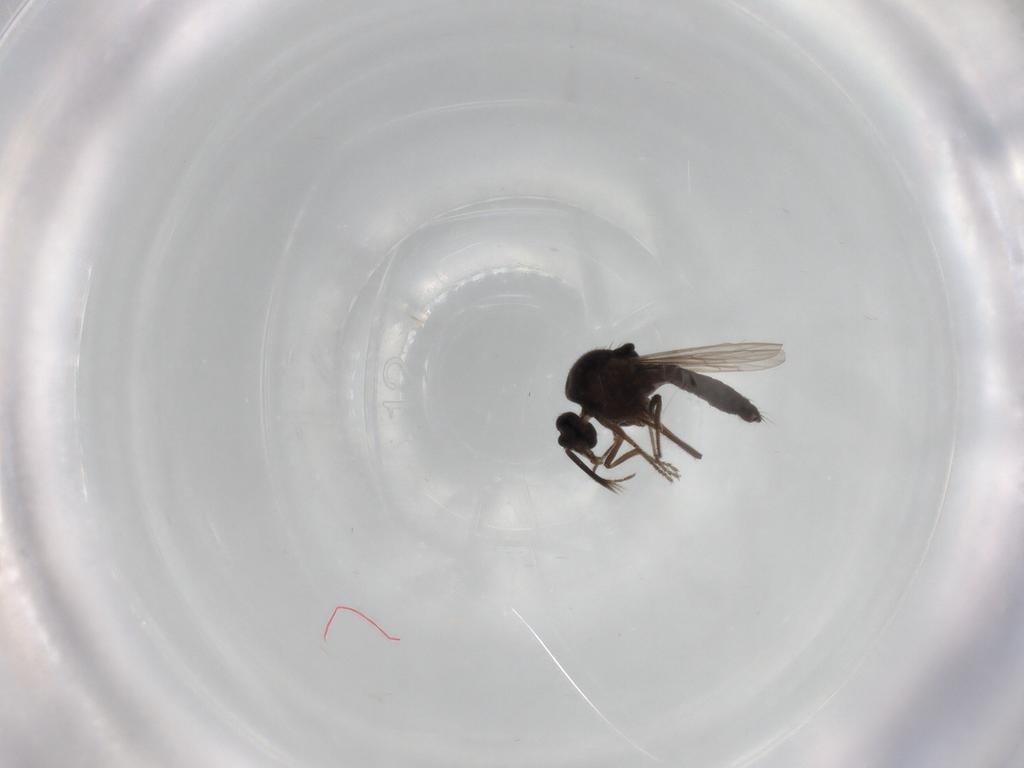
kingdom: Animalia
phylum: Arthropoda
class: Insecta
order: Diptera
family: Ceratopogonidae
